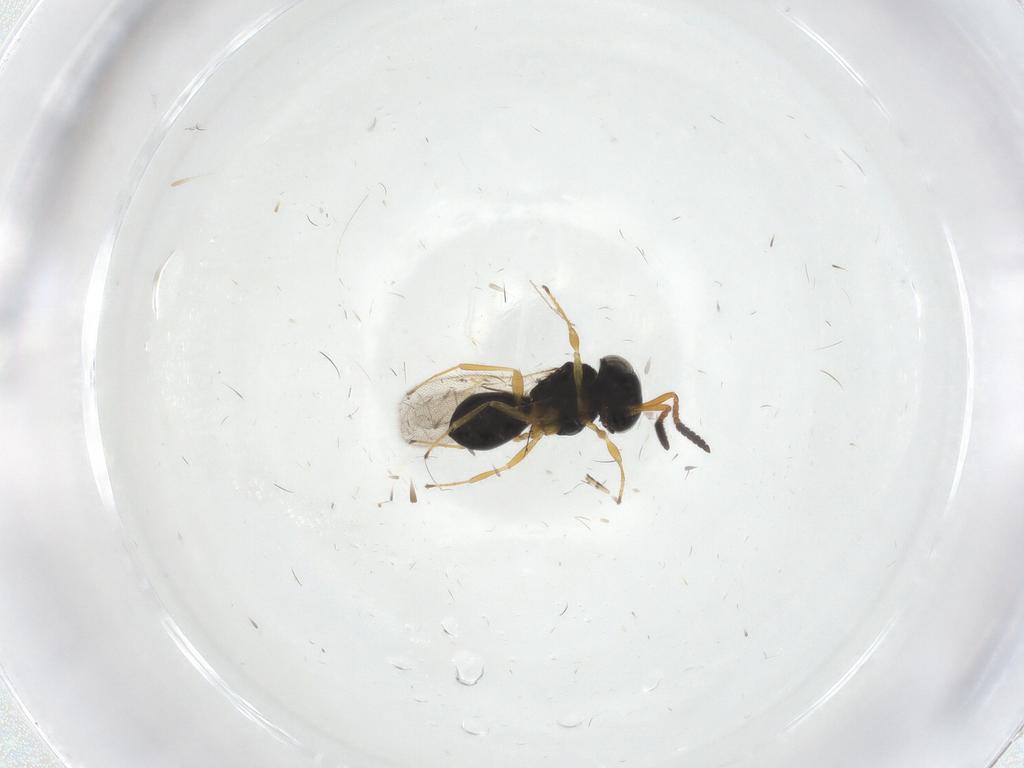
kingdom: Animalia
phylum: Arthropoda
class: Insecta
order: Hymenoptera
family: Scelionidae
